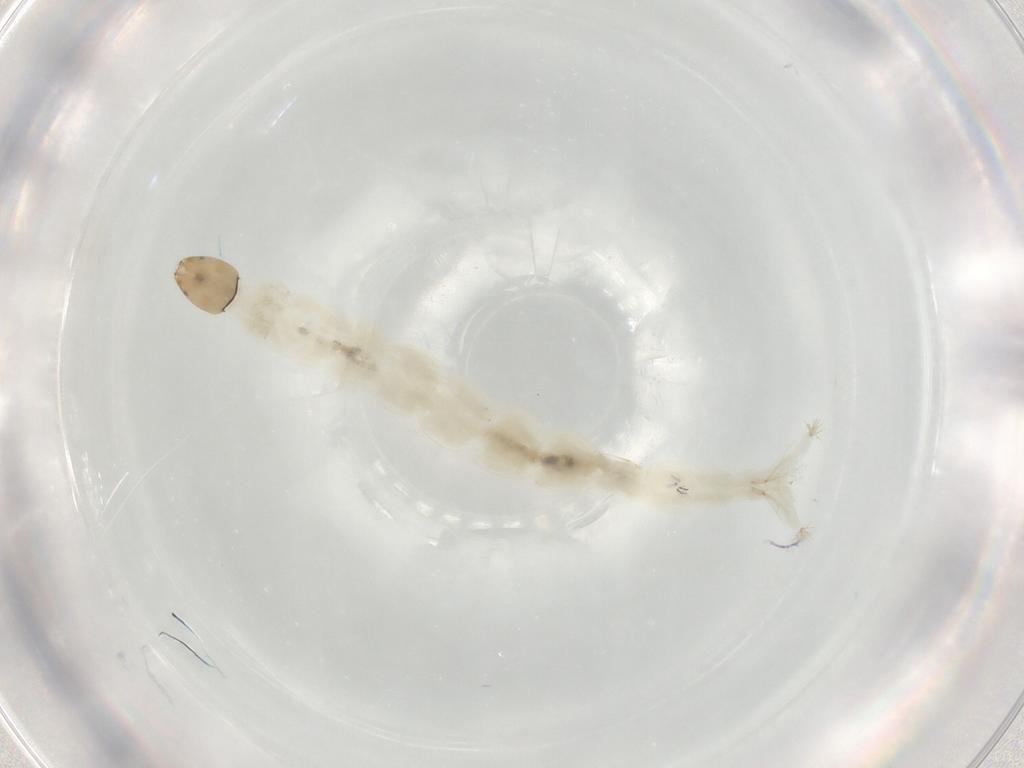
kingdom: Animalia
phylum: Arthropoda
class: Insecta
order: Diptera
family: Chironomidae
